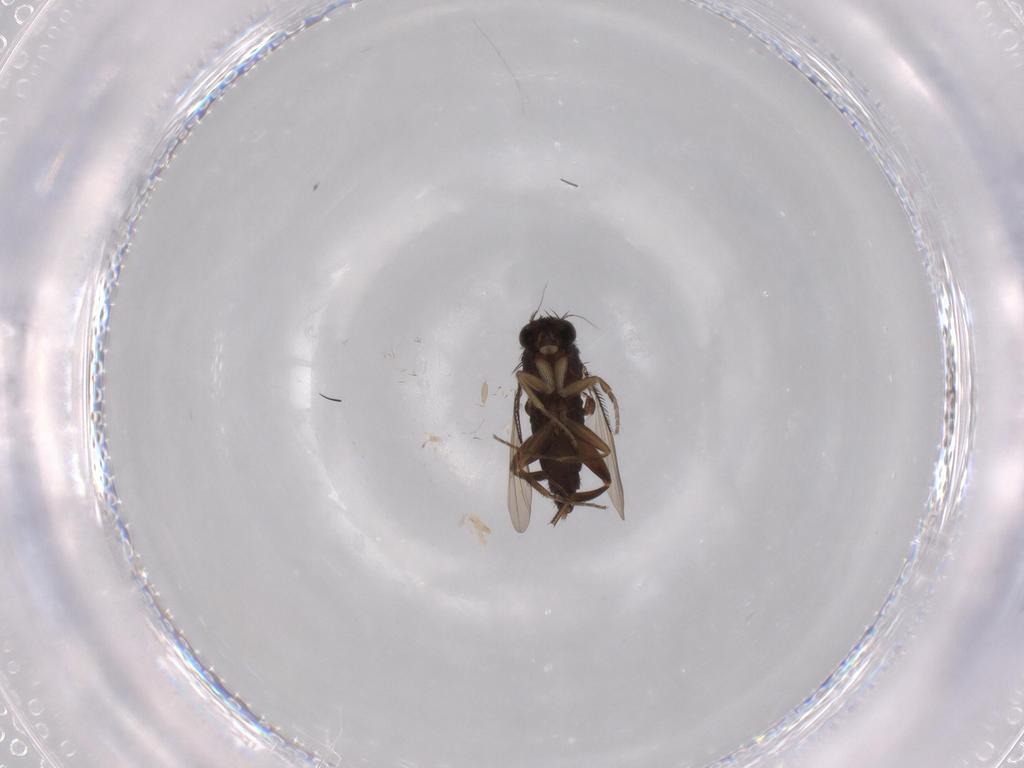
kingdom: Animalia
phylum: Arthropoda
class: Insecta
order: Diptera
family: Phoridae
